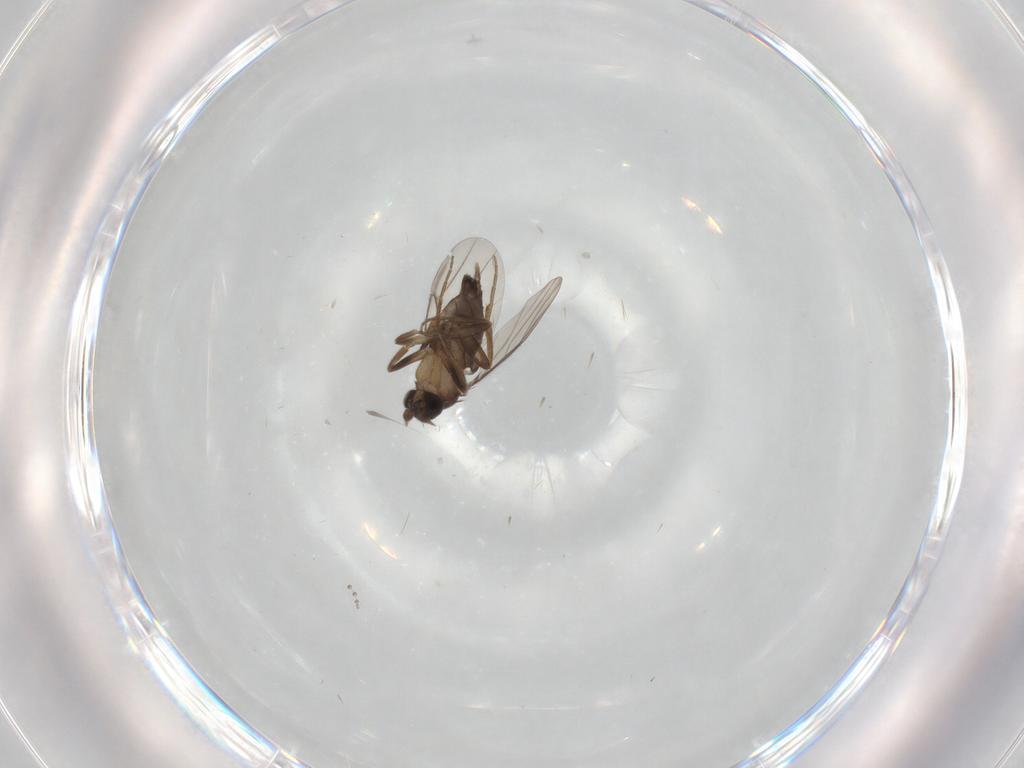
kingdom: Animalia
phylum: Arthropoda
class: Insecta
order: Diptera
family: Phoridae
